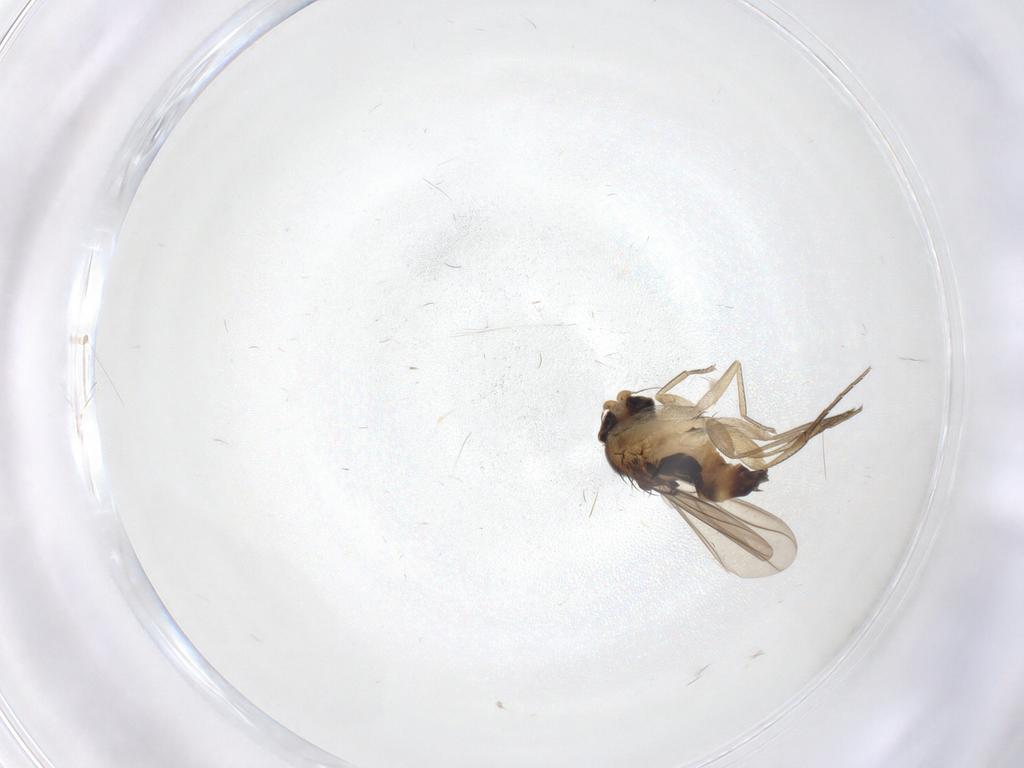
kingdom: Animalia
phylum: Arthropoda
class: Insecta
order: Diptera
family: Phoridae
